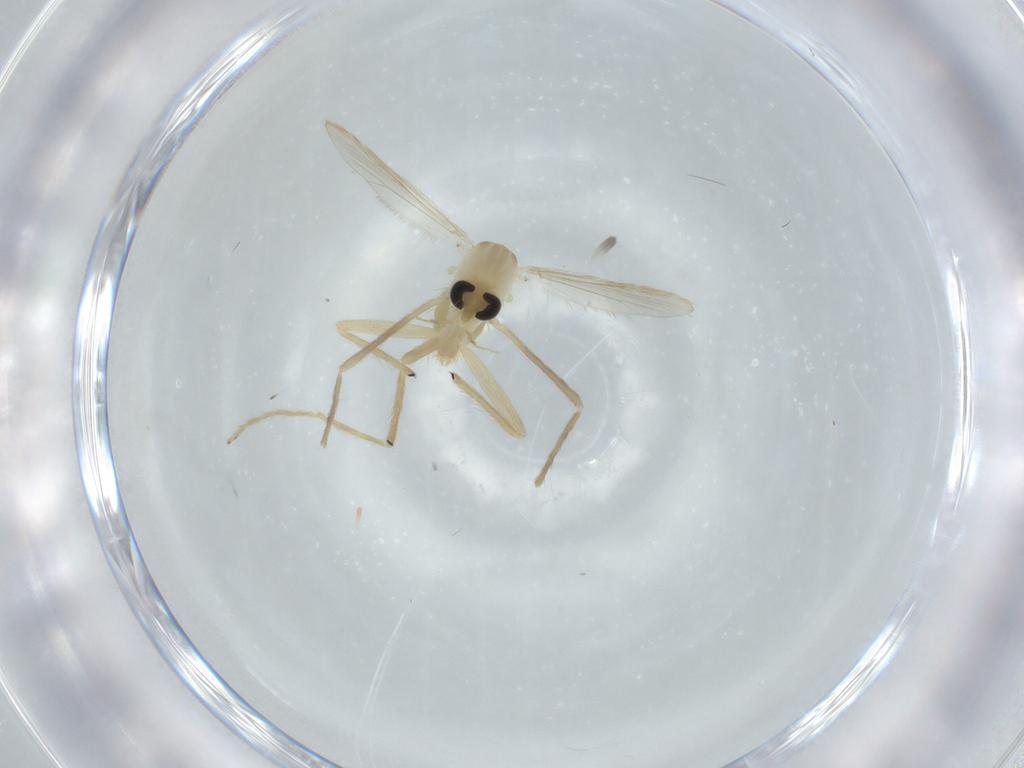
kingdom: Animalia
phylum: Arthropoda
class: Insecta
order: Diptera
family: Chironomidae
